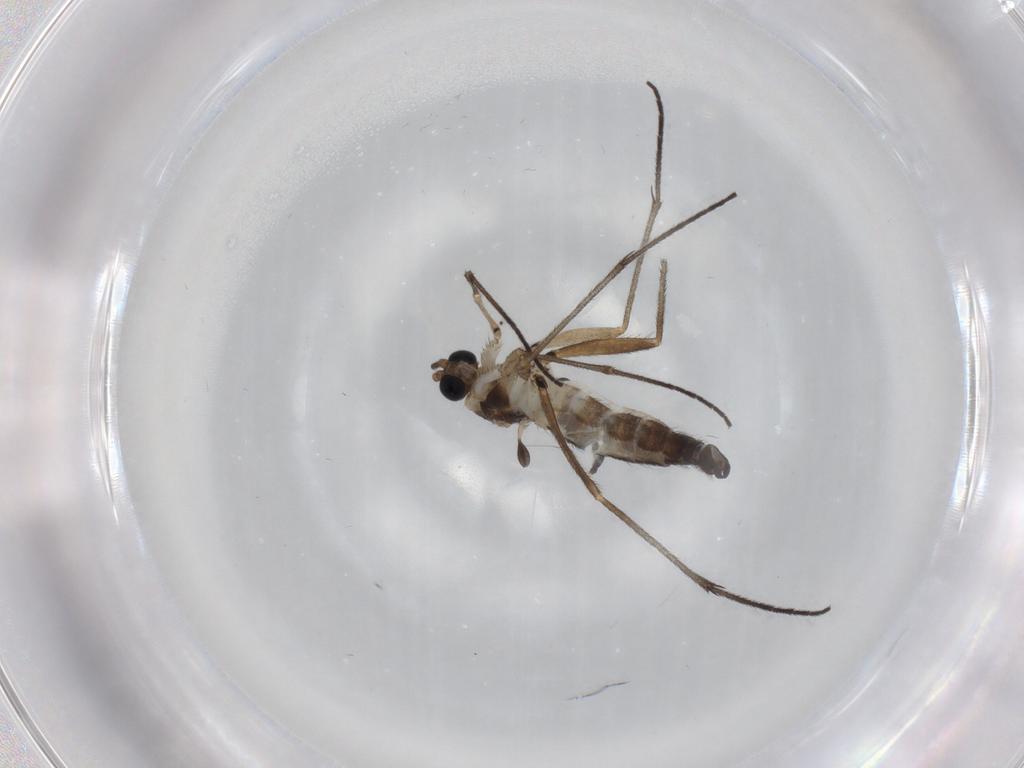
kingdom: Animalia
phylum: Arthropoda
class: Insecta
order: Diptera
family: Sciaridae
